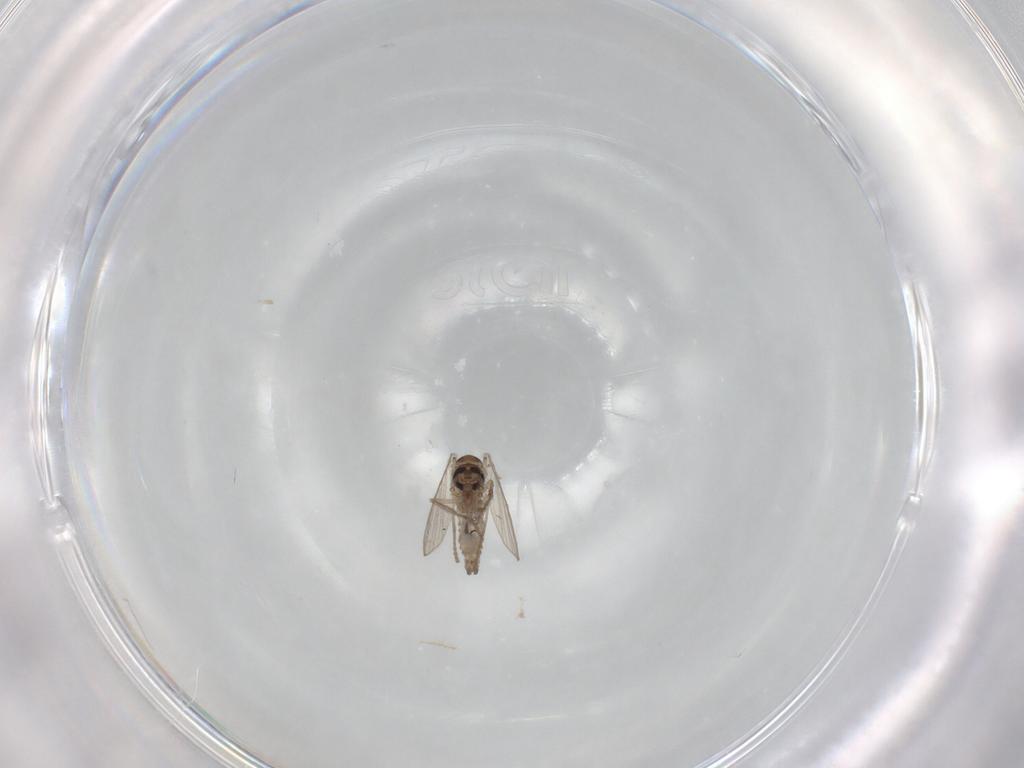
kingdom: Animalia
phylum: Arthropoda
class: Insecta
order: Diptera
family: Psychodidae
